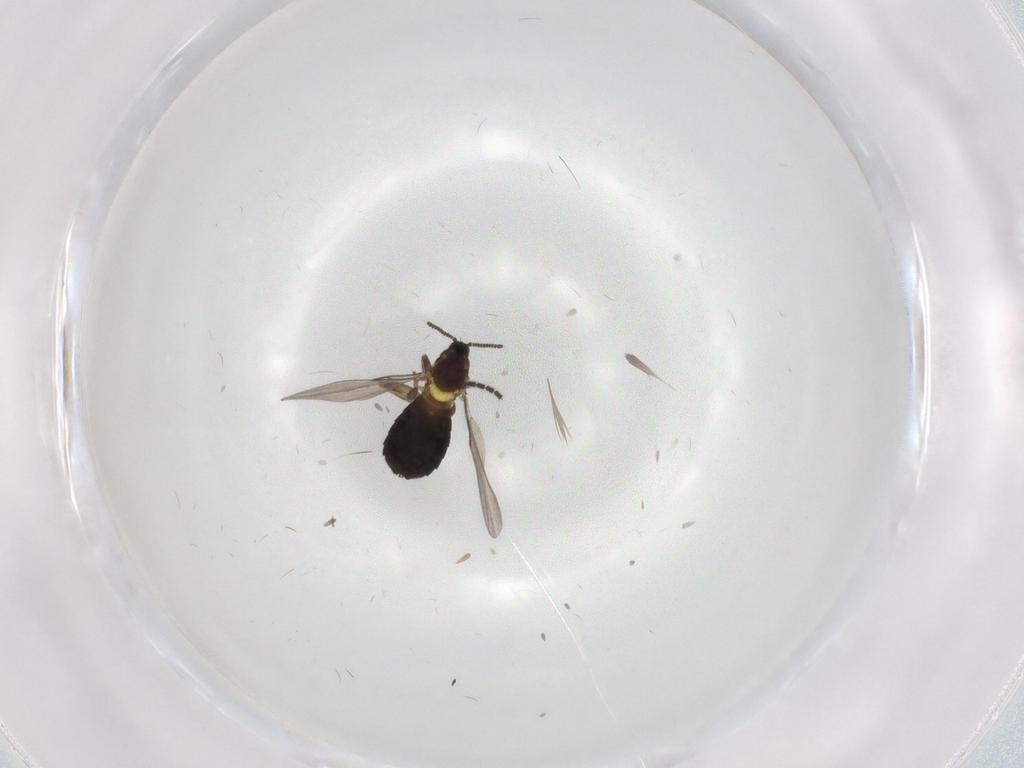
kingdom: Animalia
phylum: Arthropoda
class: Insecta
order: Diptera
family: Scatopsidae
